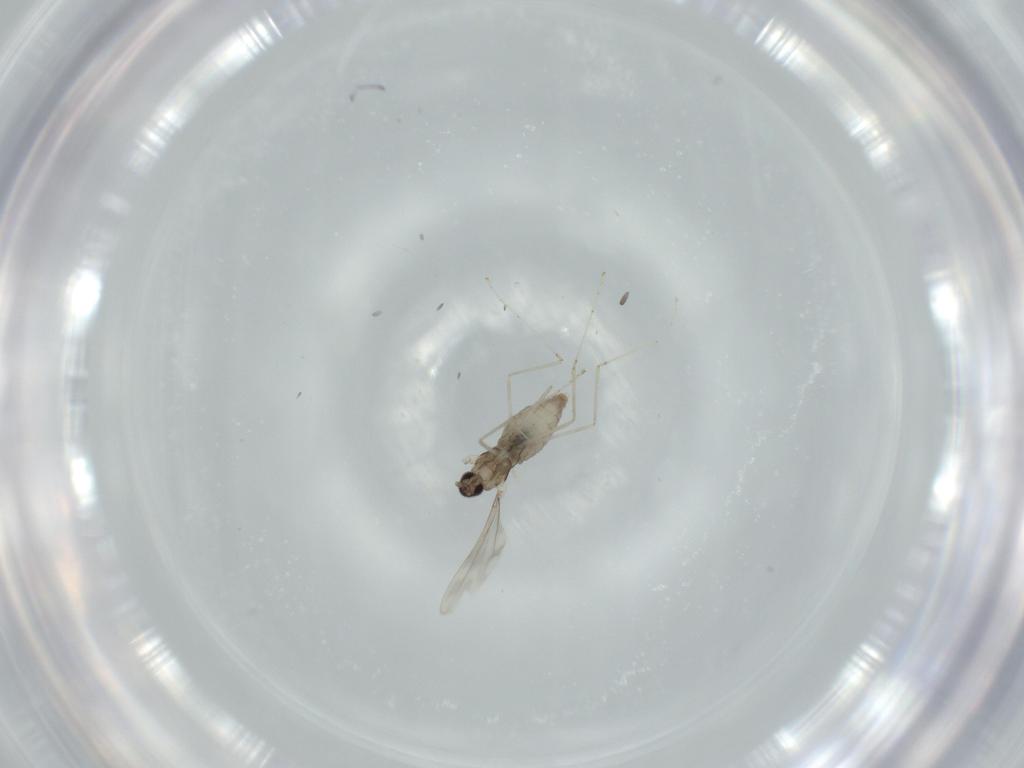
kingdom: Animalia
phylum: Arthropoda
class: Insecta
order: Diptera
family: Cecidomyiidae
